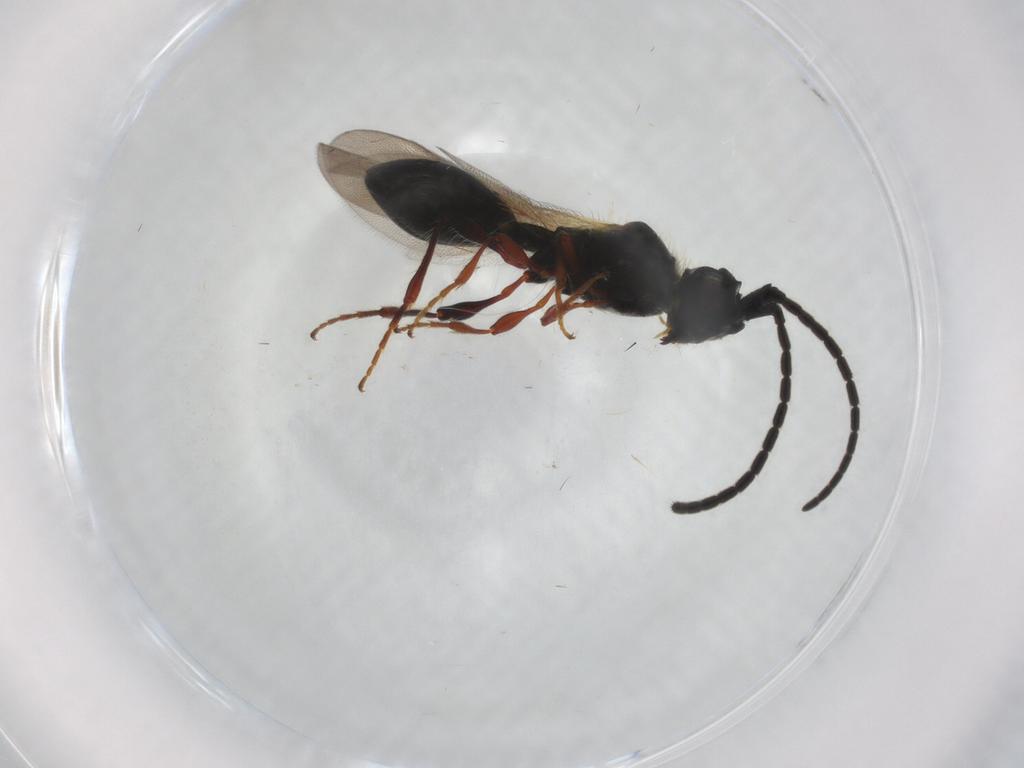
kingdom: Animalia
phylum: Arthropoda
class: Insecta
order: Hymenoptera
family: Diapriidae
